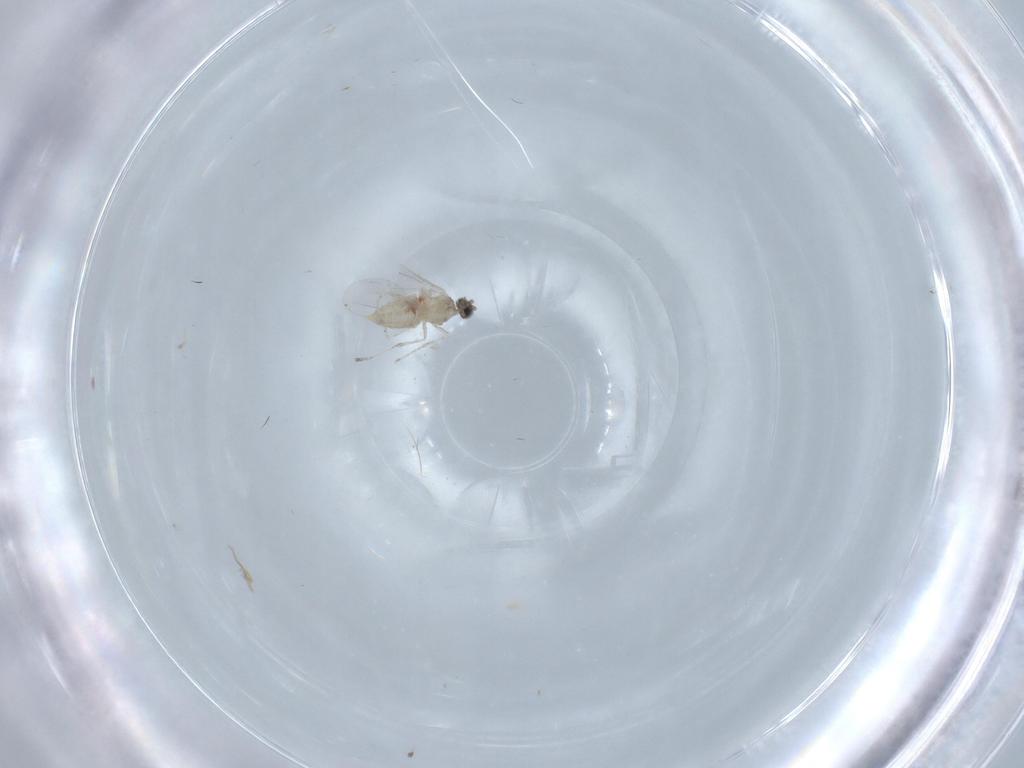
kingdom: Animalia
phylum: Arthropoda
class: Insecta
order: Diptera
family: Cecidomyiidae
